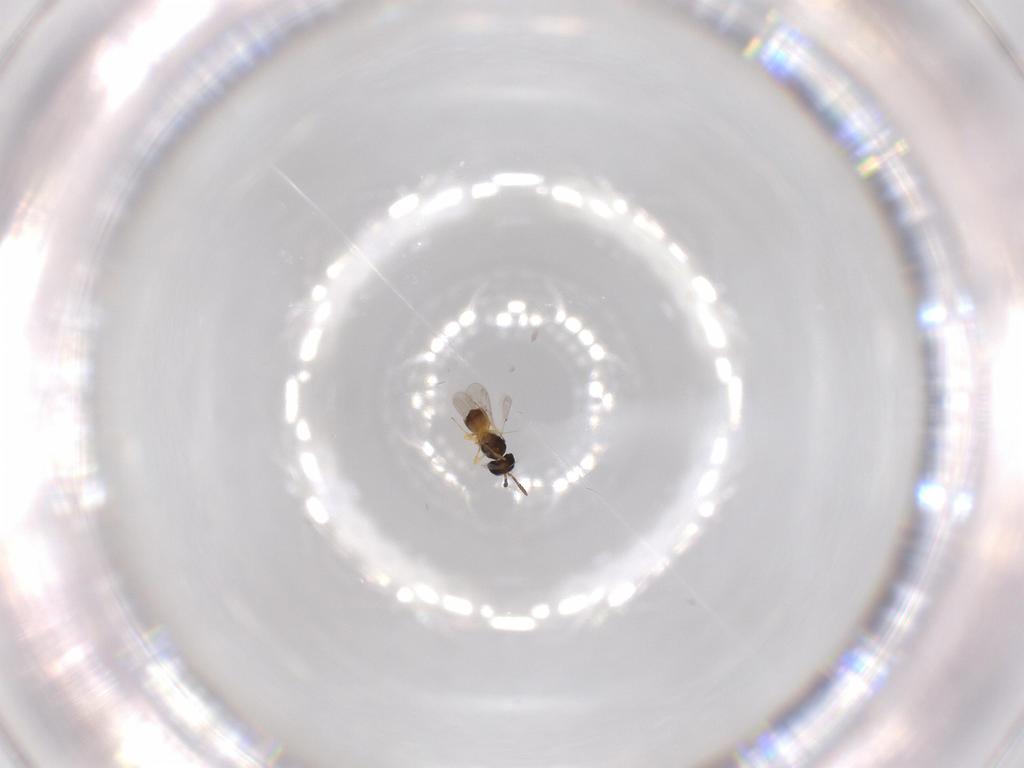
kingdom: Animalia
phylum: Arthropoda
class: Insecta
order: Hymenoptera
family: Scelionidae
